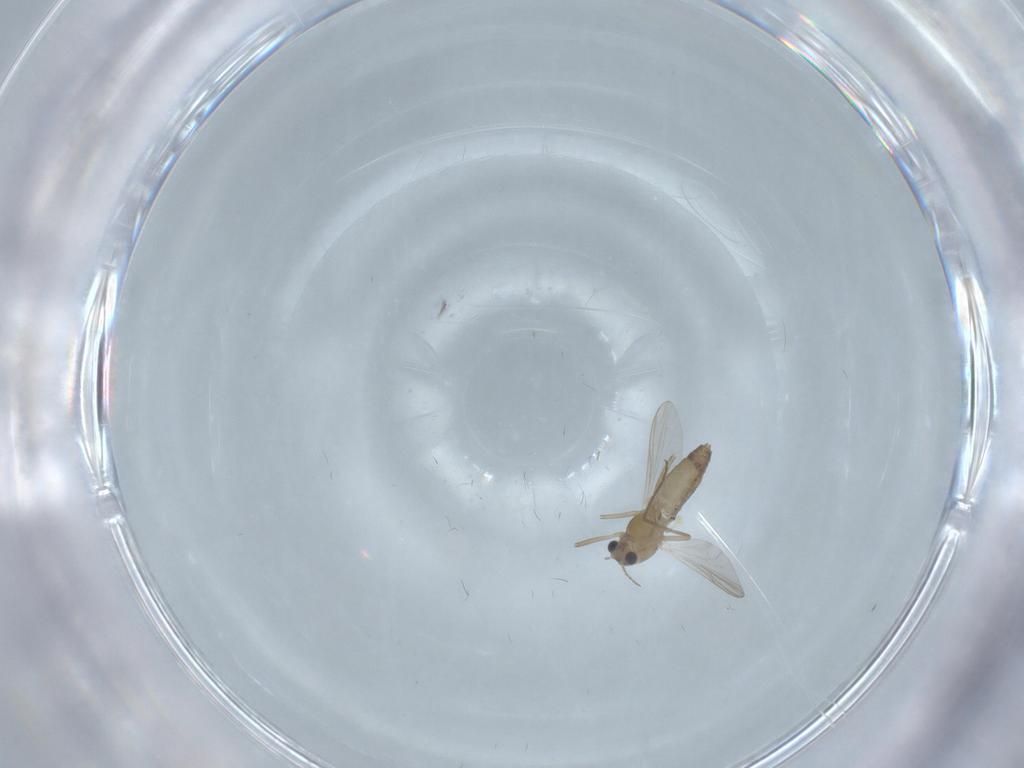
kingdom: Animalia
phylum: Arthropoda
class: Insecta
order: Diptera
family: Chironomidae
